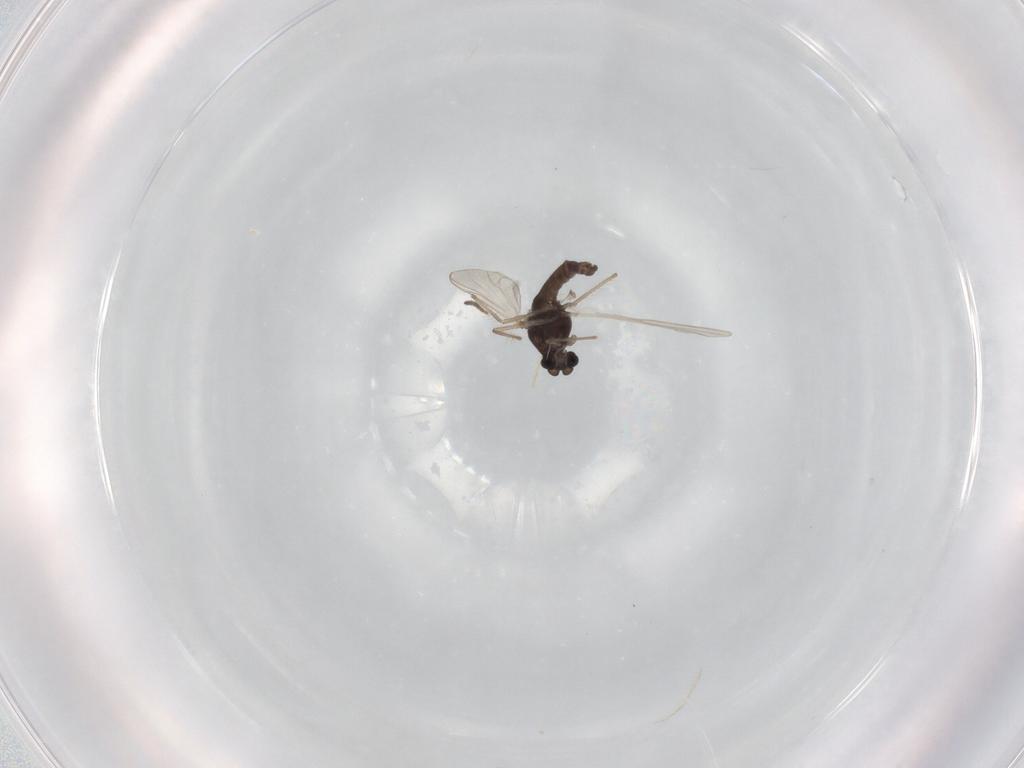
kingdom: Animalia
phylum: Arthropoda
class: Insecta
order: Diptera
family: Chironomidae
